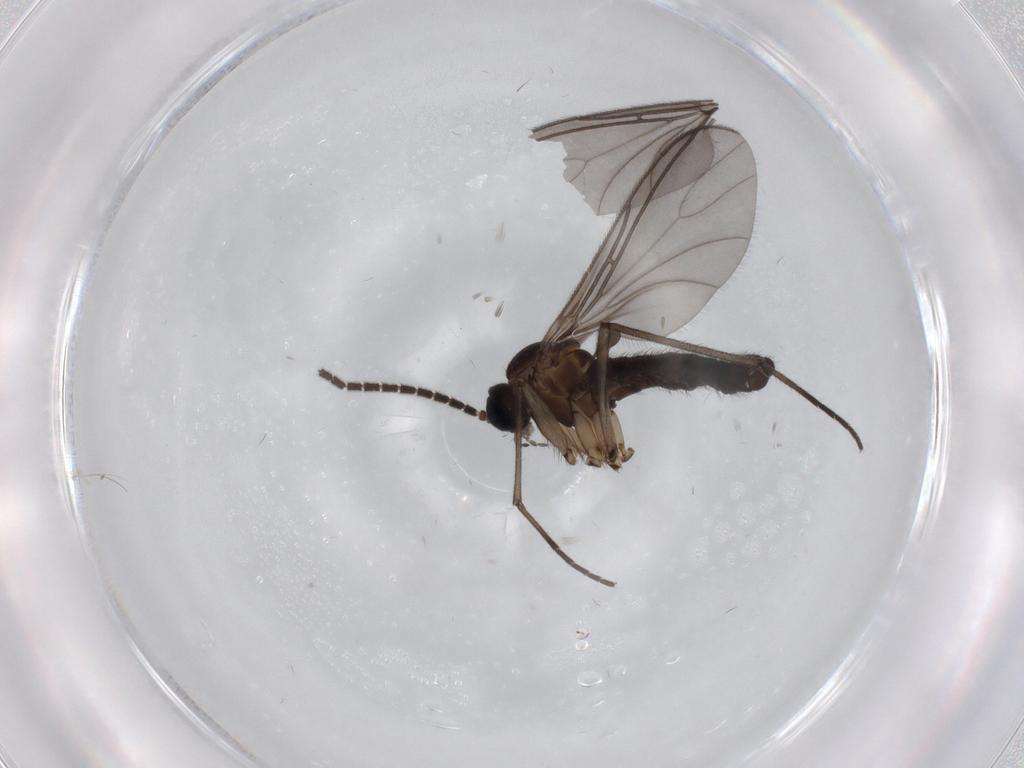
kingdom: Animalia
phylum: Arthropoda
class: Insecta
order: Diptera
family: Sciaridae
